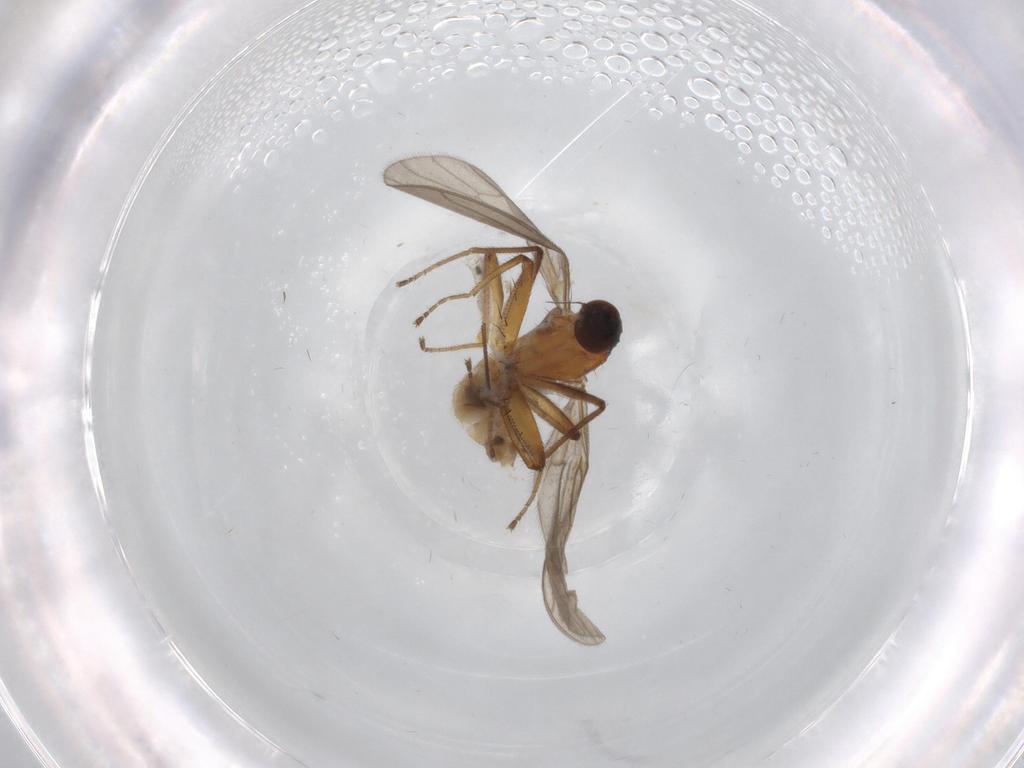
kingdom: Animalia
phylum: Arthropoda
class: Insecta
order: Diptera
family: Empididae
